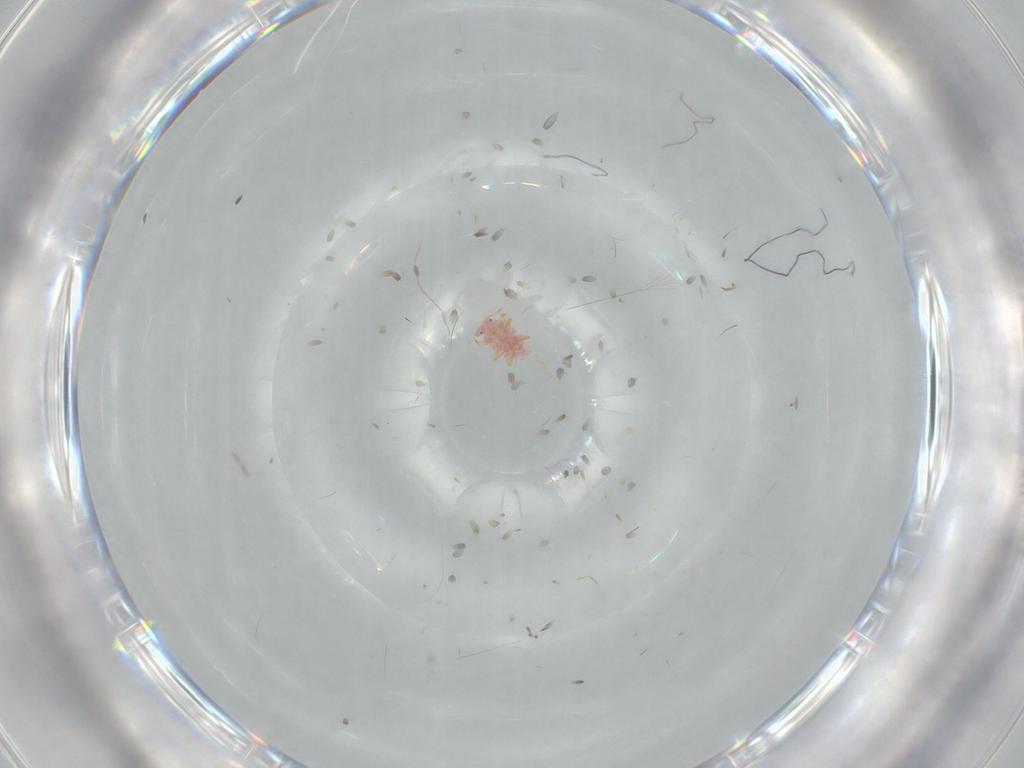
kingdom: Animalia
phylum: Arthropoda
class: Insecta
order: Hemiptera
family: Pseudococcidae
